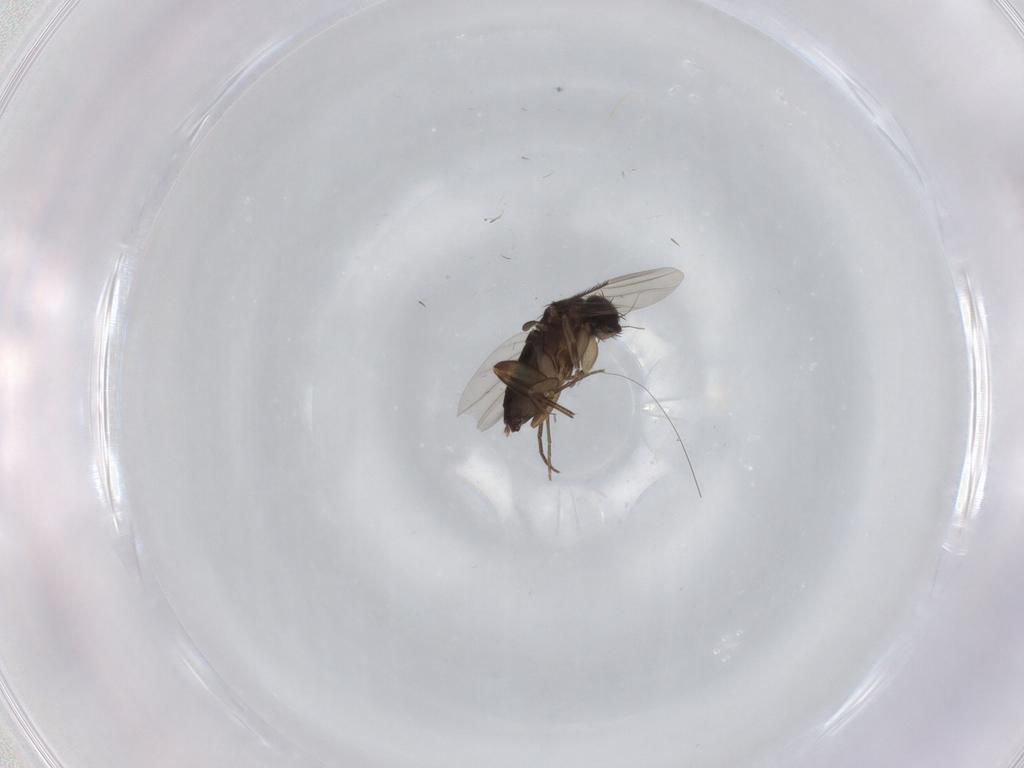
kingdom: Animalia
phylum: Arthropoda
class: Insecta
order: Diptera
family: Phoridae
